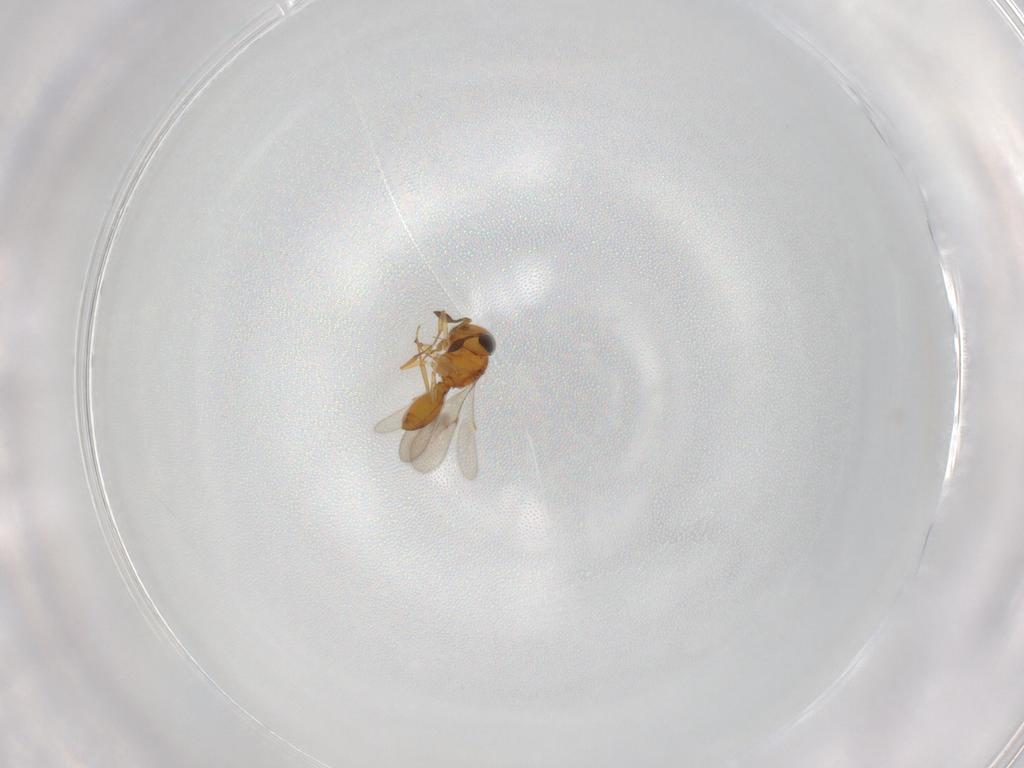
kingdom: Animalia
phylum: Arthropoda
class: Insecta
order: Hymenoptera
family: Scelionidae
